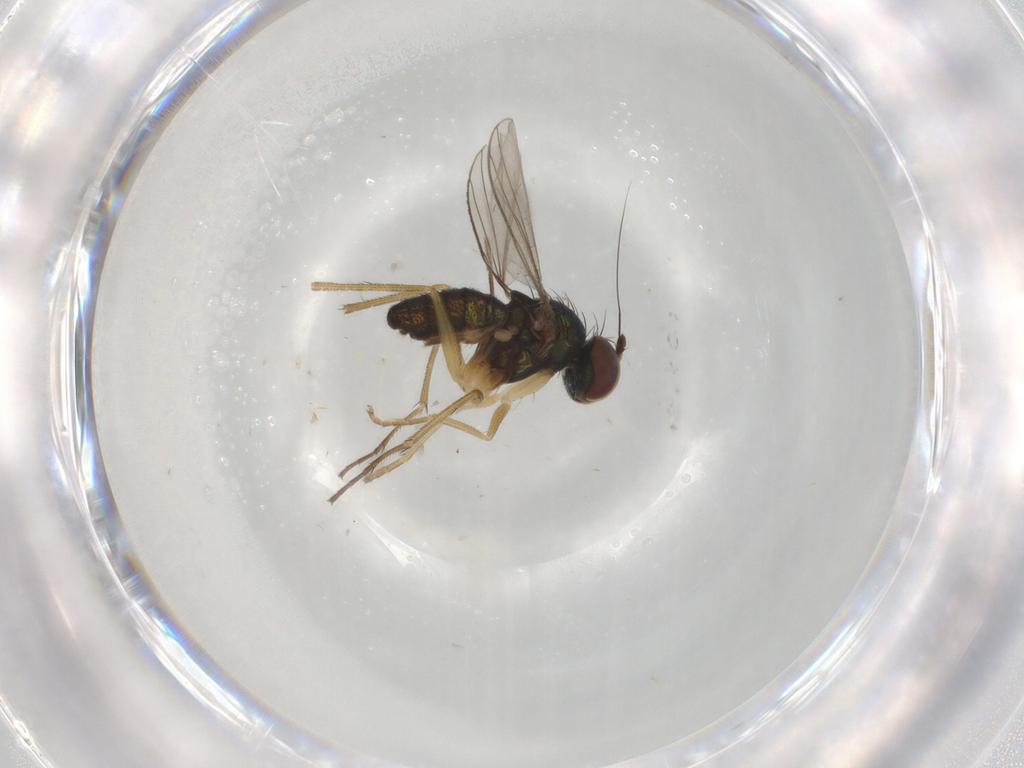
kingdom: Animalia
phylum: Arthropoda
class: Insecta
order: Diptera
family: Dolichopodidae
